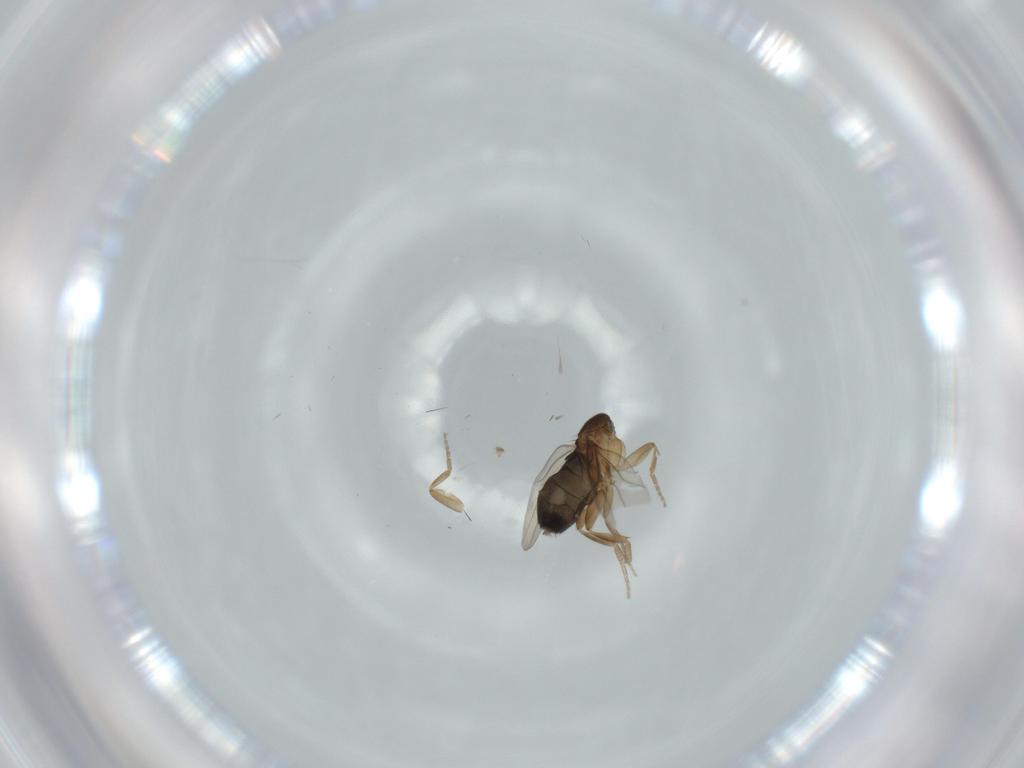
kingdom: Animalia
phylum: Arthropoda
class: Insecta
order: Diptera
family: Phoridae
